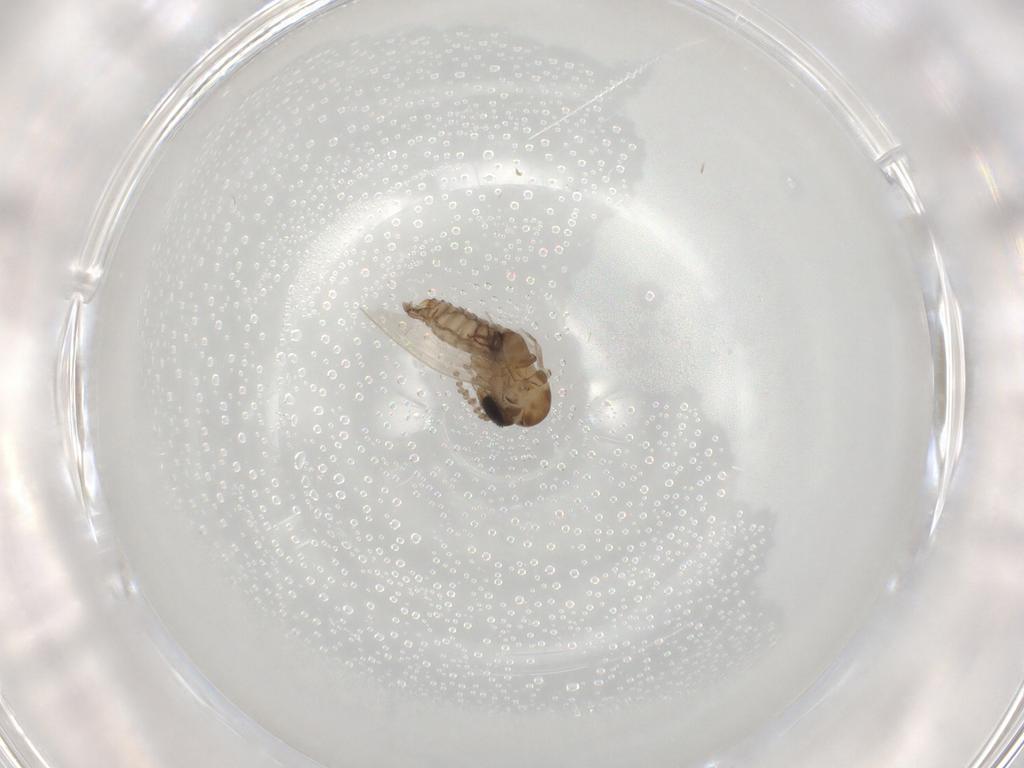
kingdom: Animalia
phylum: Arthropoda
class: Insecta
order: Diptera
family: Psychodidae
